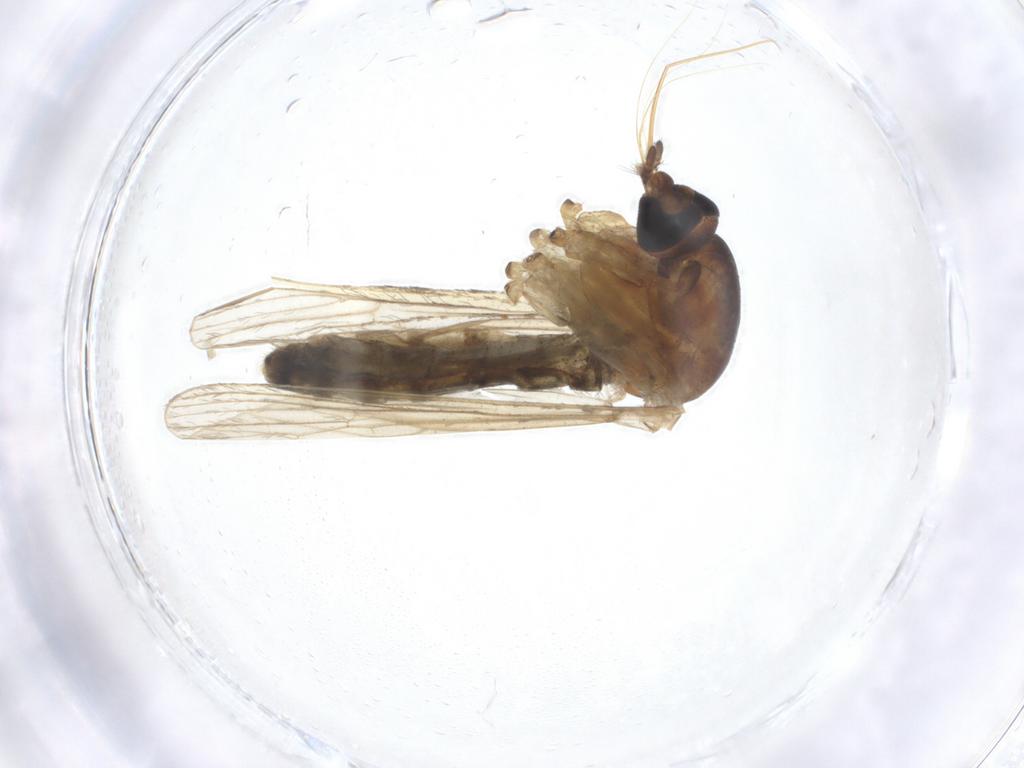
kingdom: Animalia
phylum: Arthropoda
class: Insecta
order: Diptera
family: Sciaridae
